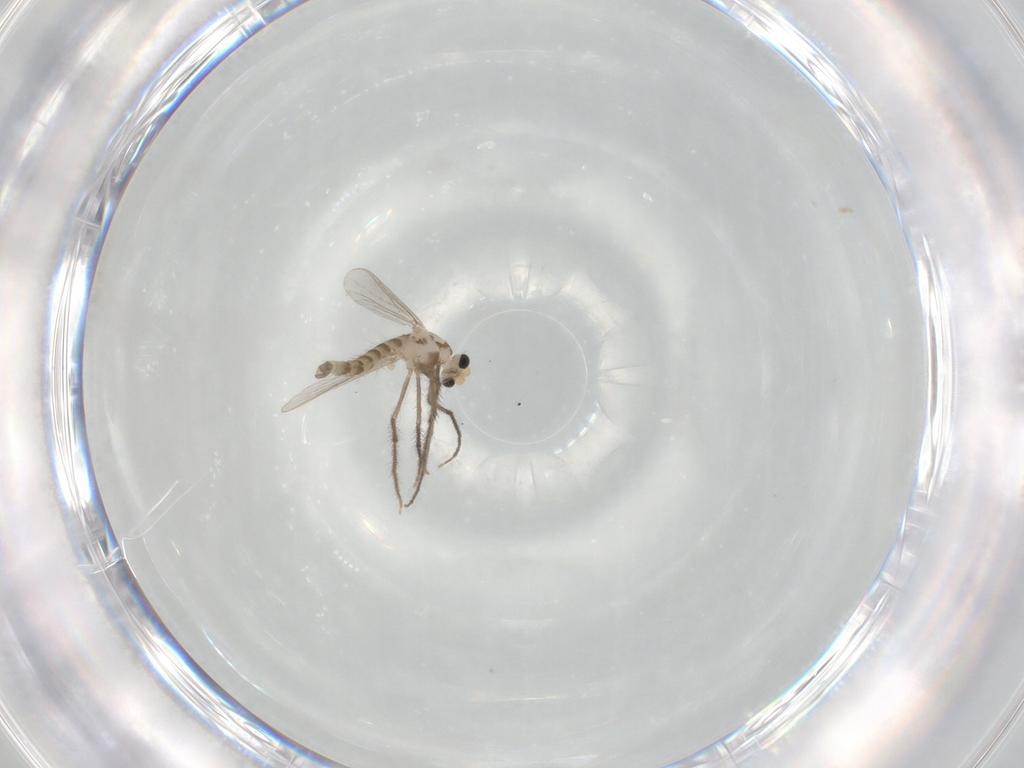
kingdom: Animalia
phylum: Arthropoda
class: Insecta
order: Diptera
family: Chironomidae
